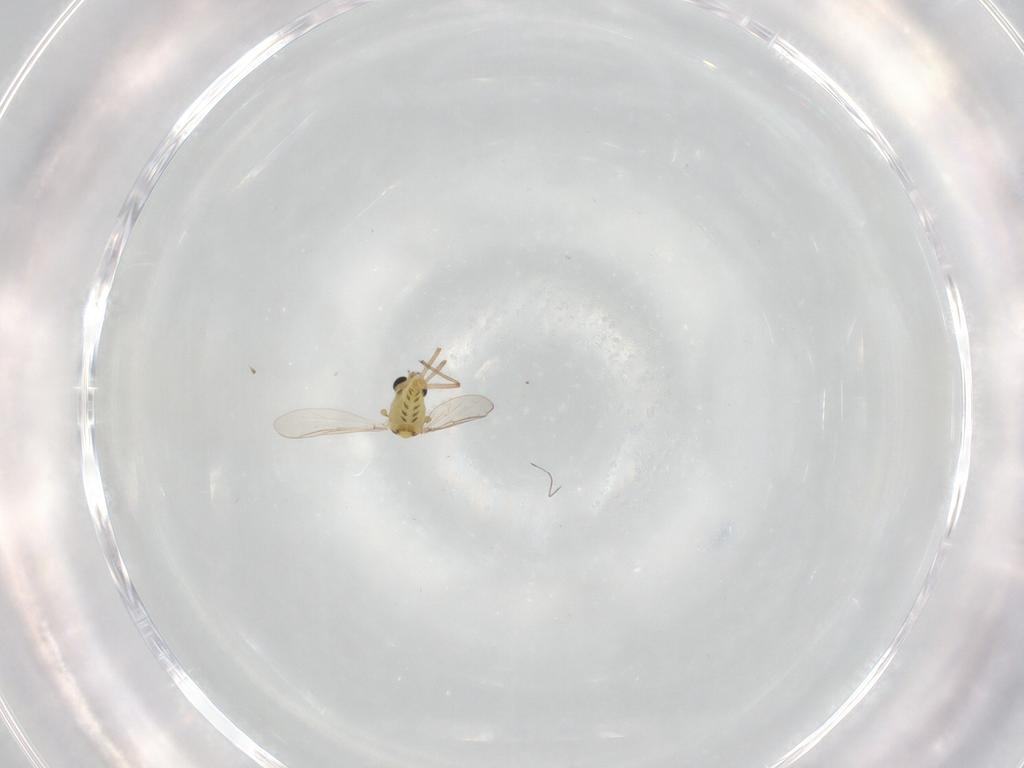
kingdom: Animalia
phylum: Arthropoda
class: Insecta
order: Diptera
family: Chironomidae
